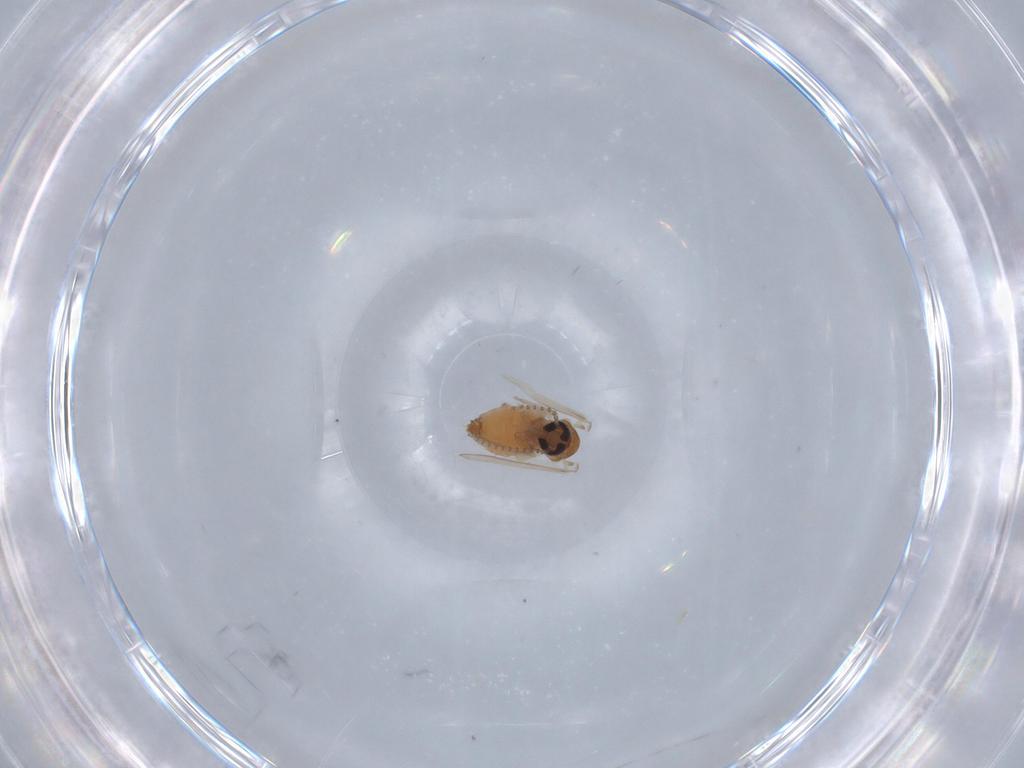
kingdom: Animalia
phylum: Arthropoda
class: Insecta
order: Diptera
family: Psychodidae
